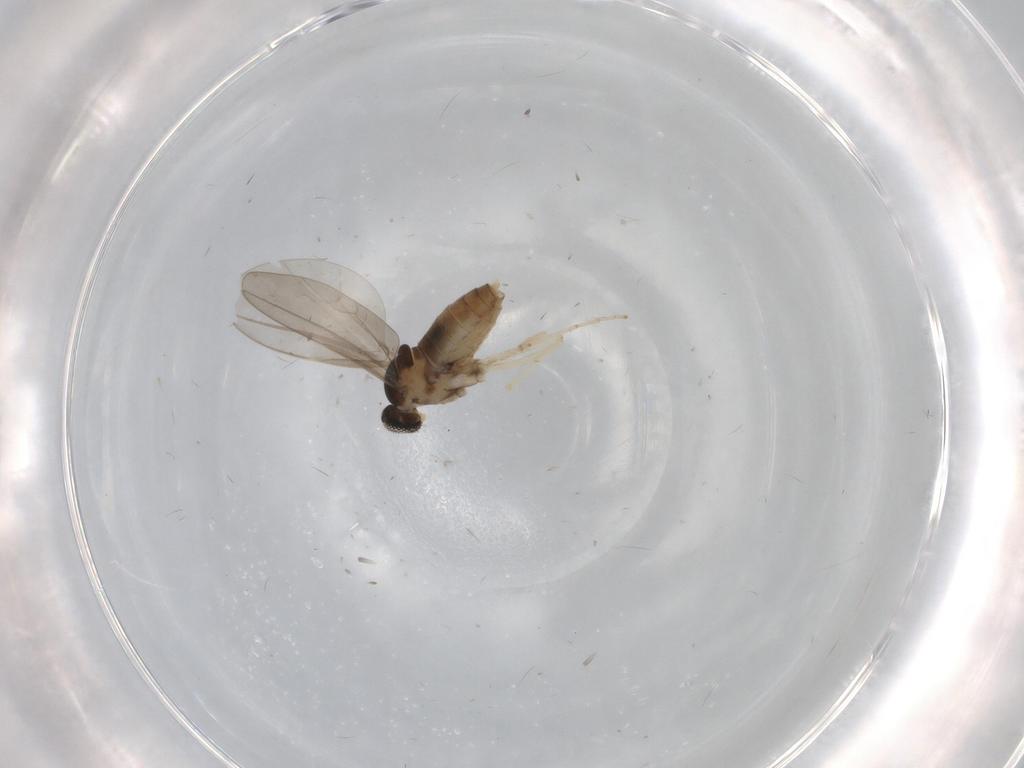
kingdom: Animalia
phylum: Arthropoda
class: Insecta
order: Diptera
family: Cecidomyiidae
